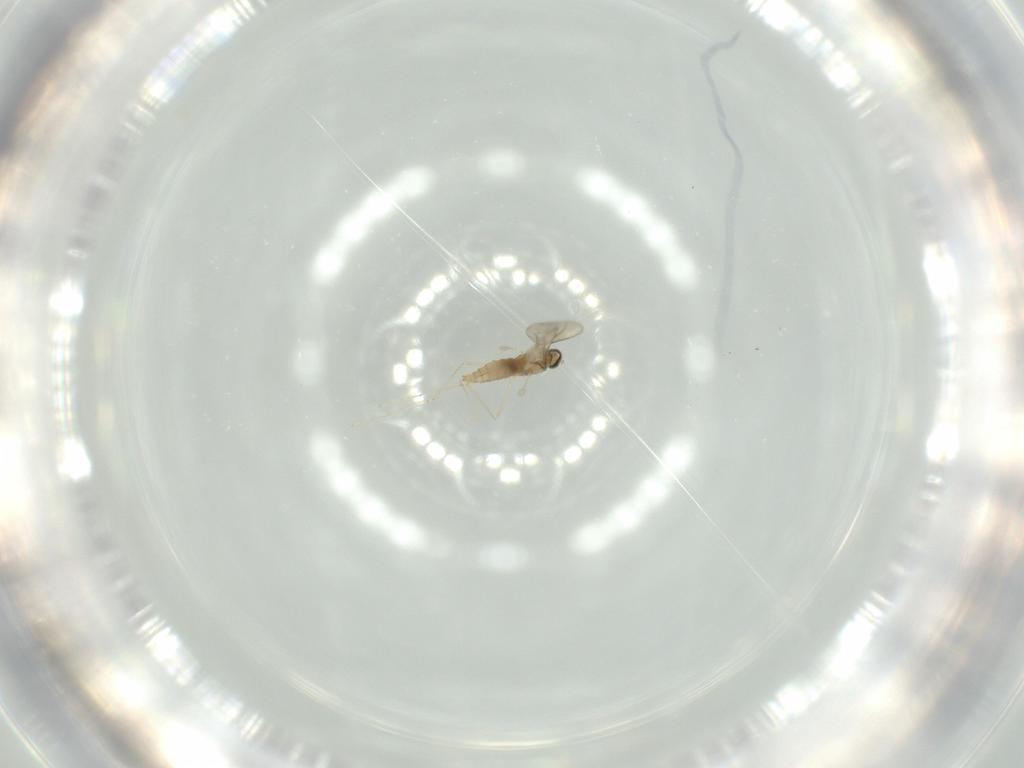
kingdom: Animalia
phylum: Arthropoda
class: Insecta
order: Diptera
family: Cecidomyiidae
